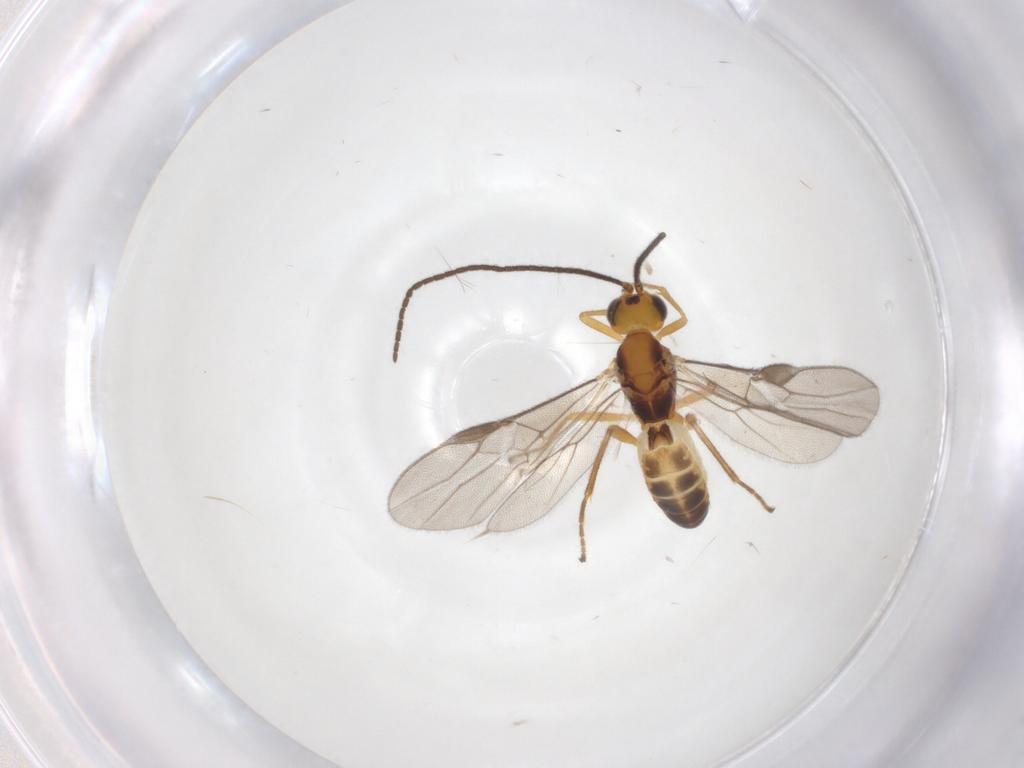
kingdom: Animalia
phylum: Arthropoda
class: Insecta
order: Hymenoptera
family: Braconidae
